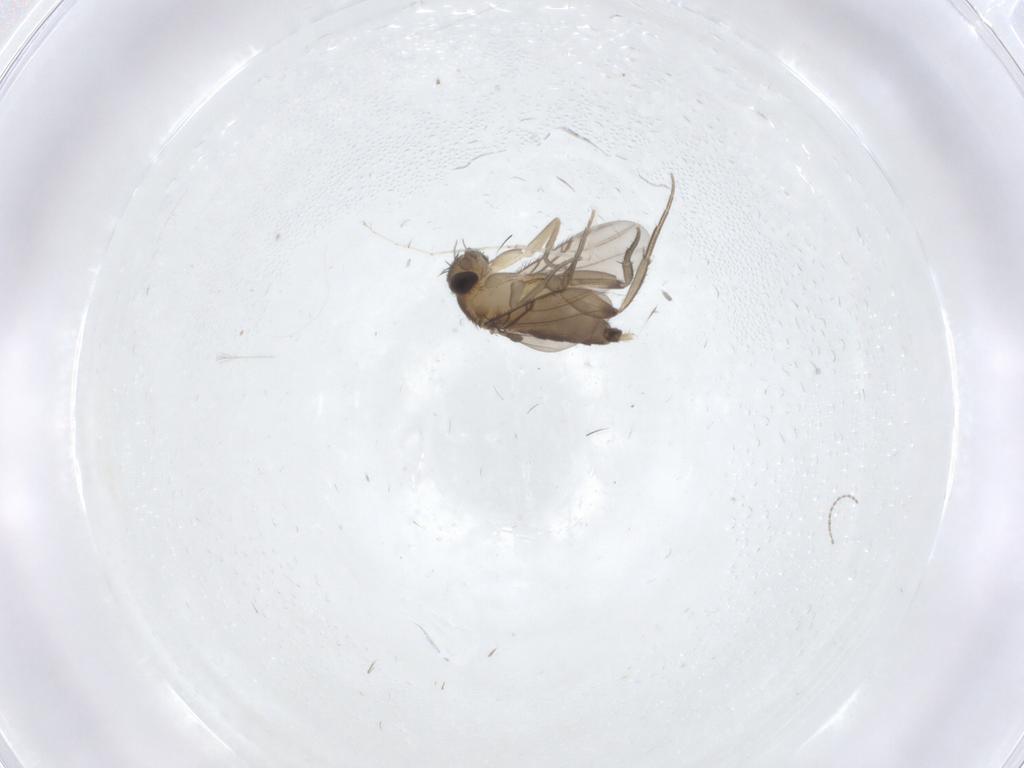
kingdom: Animalia
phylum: Arthropoda
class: Insecta
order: Diptera
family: Cecidomyiidae
